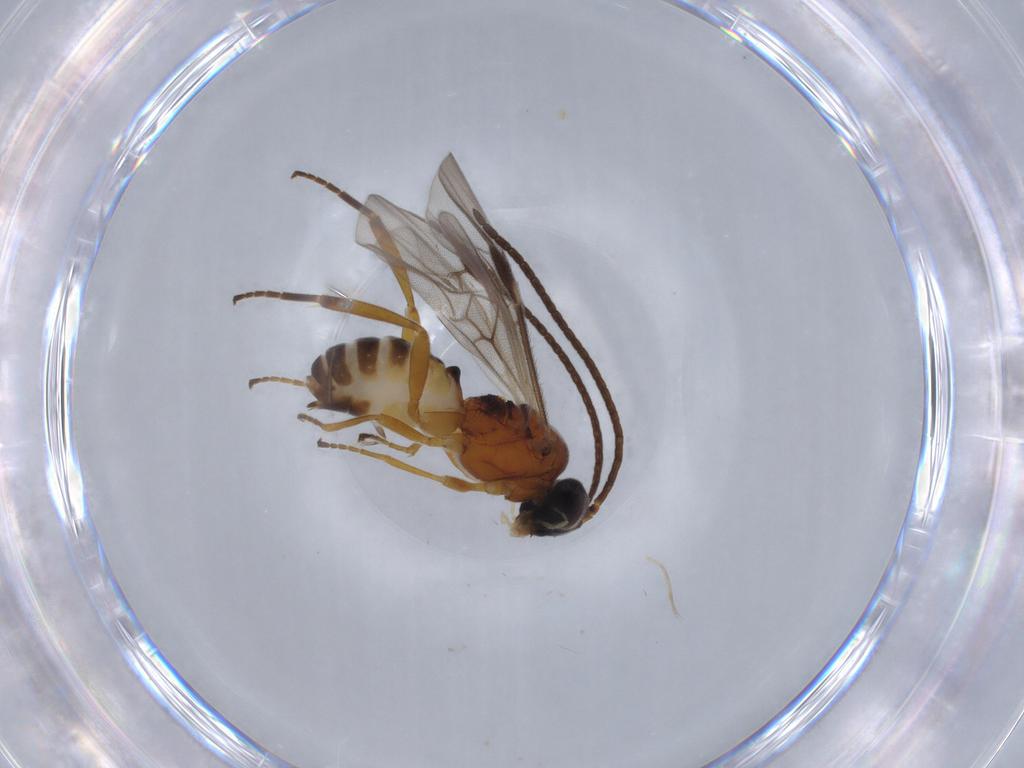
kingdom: Animalia
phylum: Arthropoda
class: Insecta
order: Hymenoptera
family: Braconidae
